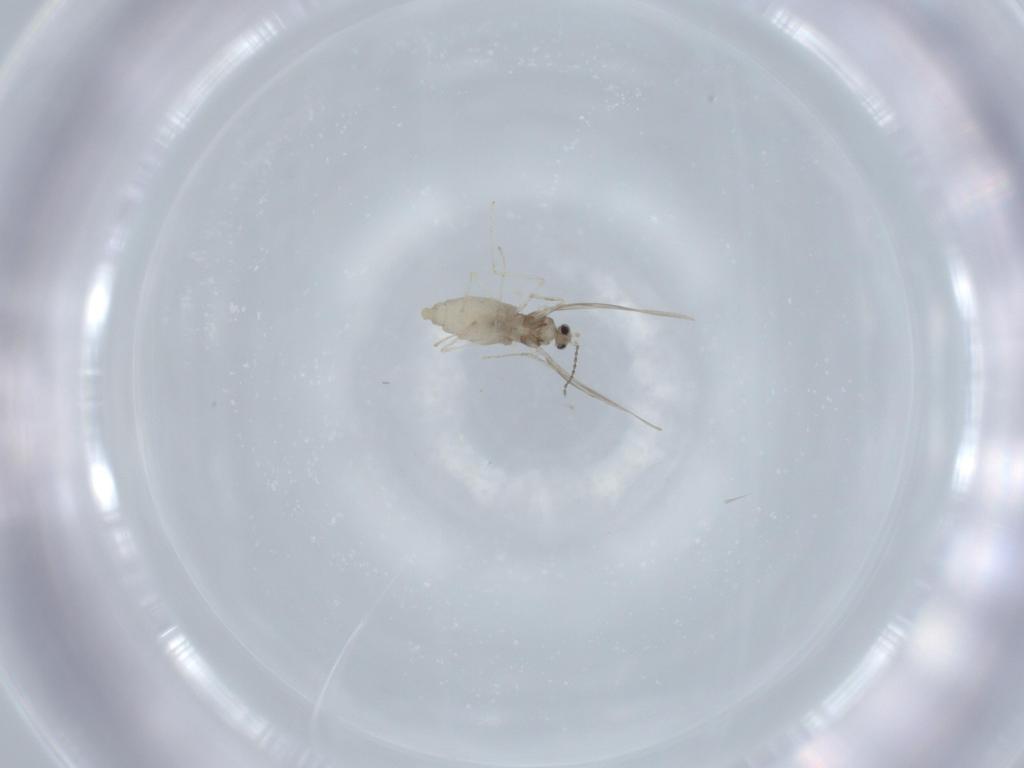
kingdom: Animalia
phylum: Arthropoda
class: Insecta
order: Diptera
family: Cecidomyiidae
